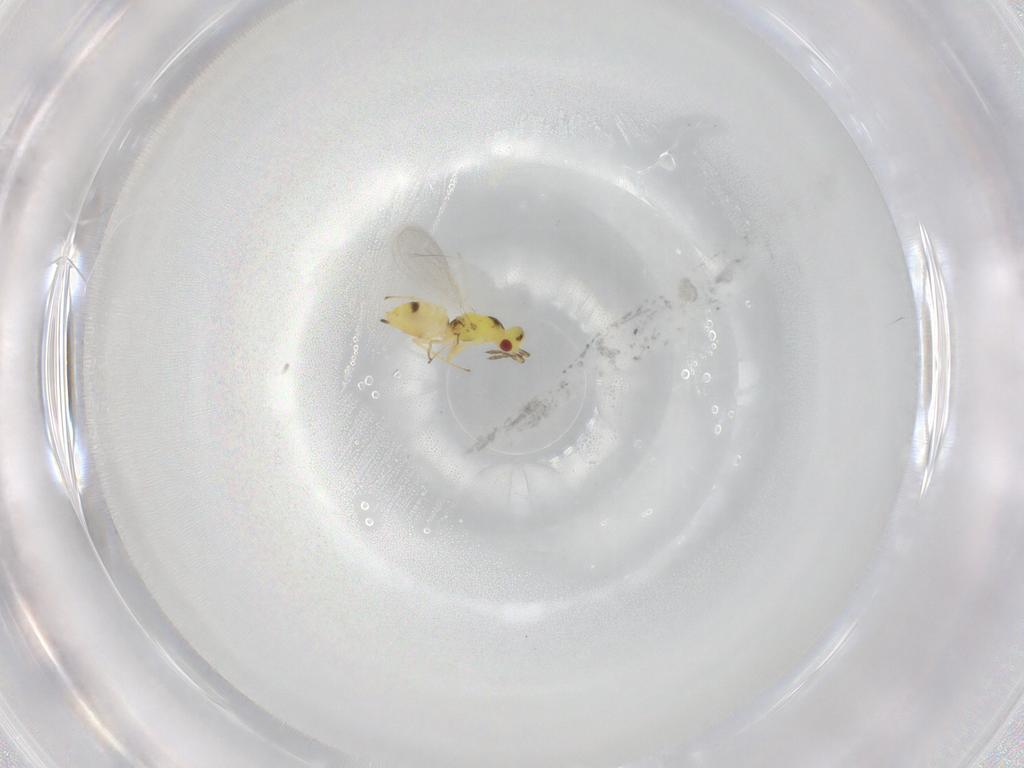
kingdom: Animalia
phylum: Arthropoda
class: Insecta
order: Hymenoptera
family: Eulophidae
